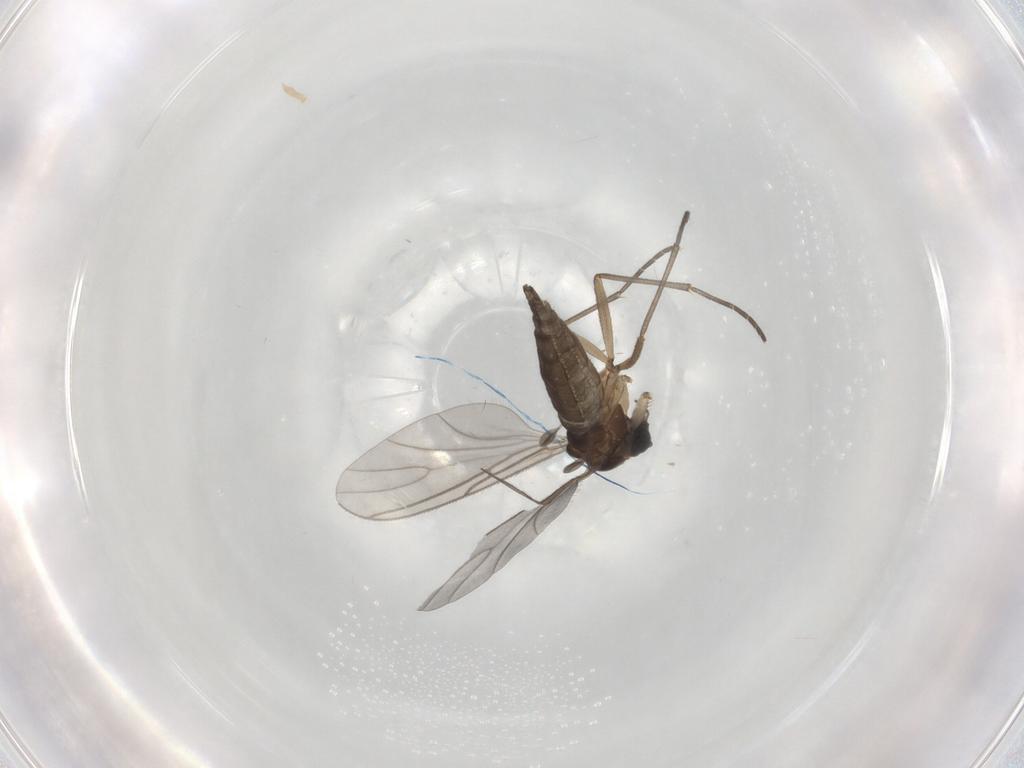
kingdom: Animalia
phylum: Arthropoda
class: Insecta
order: Diptera
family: Sciaridae
